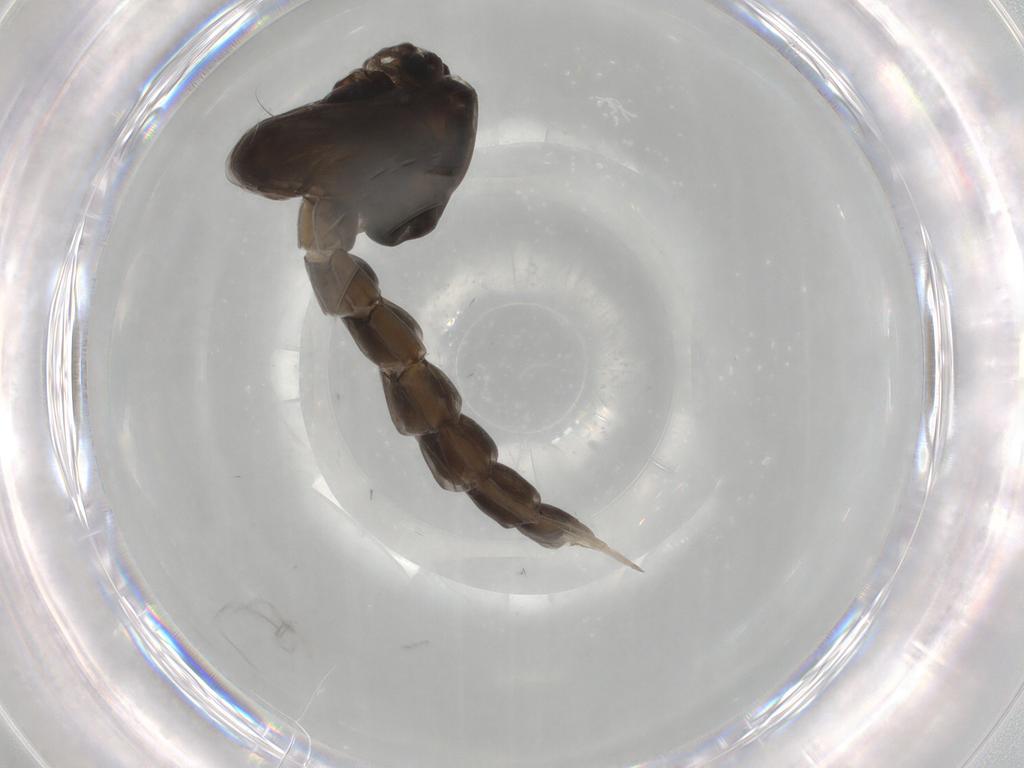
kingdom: Animalia
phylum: Arthropoda
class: Insecta
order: Diptera
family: Chironomidae
